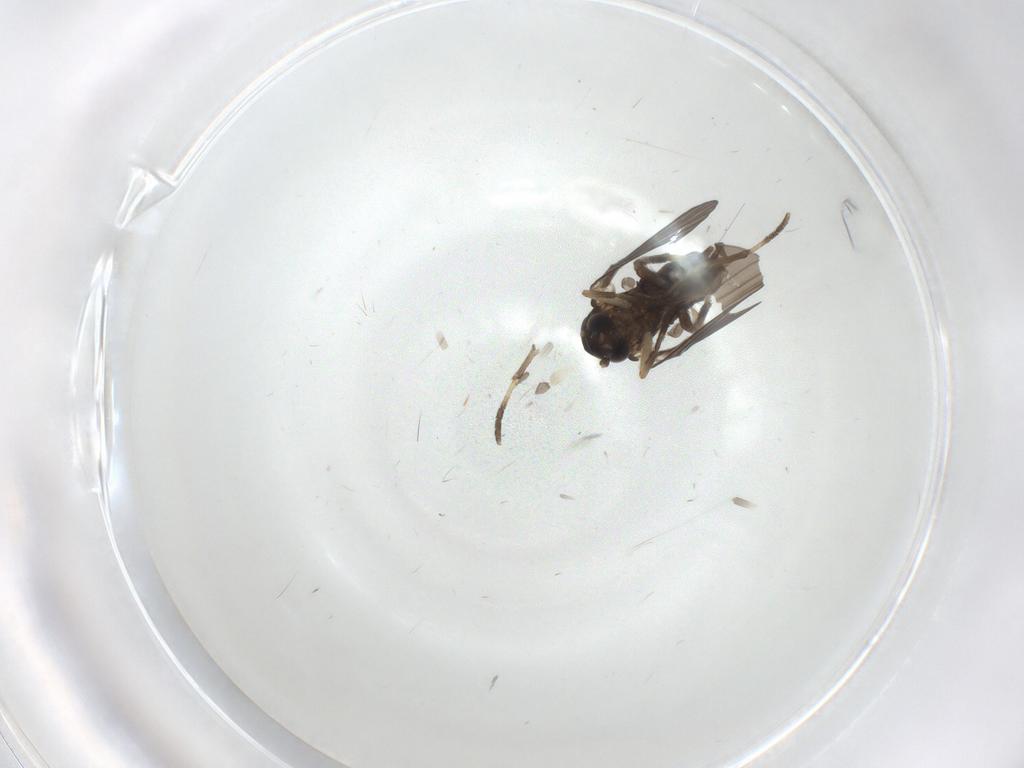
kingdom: Animalia
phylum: Arthropoda
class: Insecta
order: Diptera
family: Psychodidae
